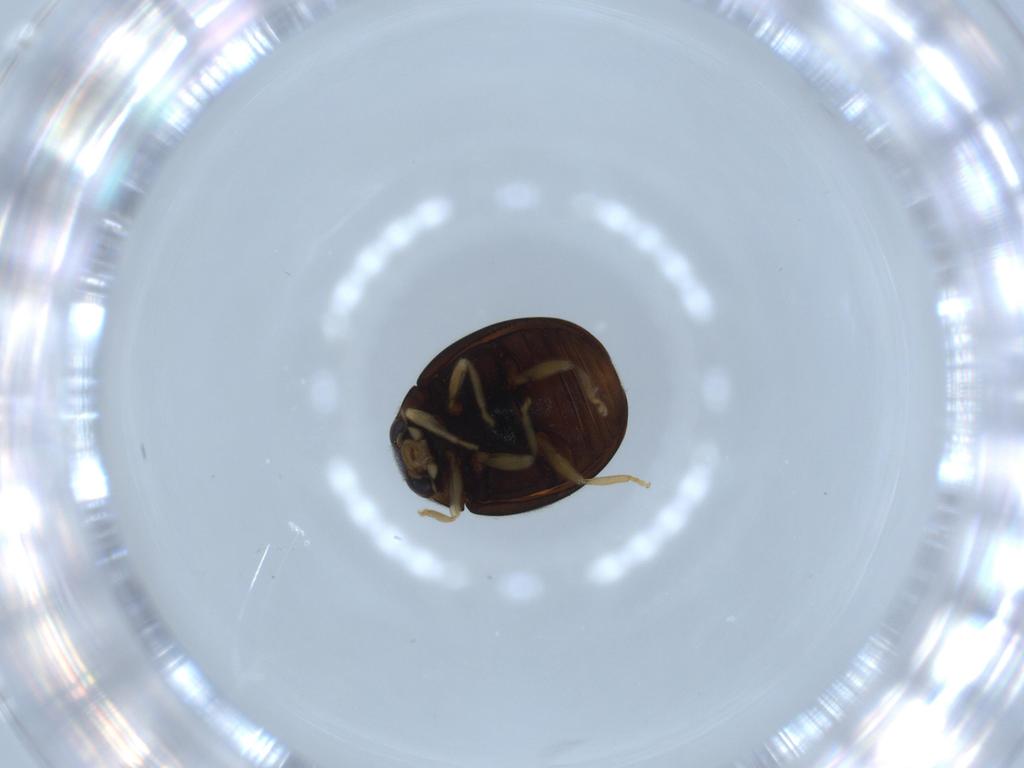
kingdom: Animalia
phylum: Arthropoda
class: Insecta
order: Coleoptera
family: Coccinellidae
